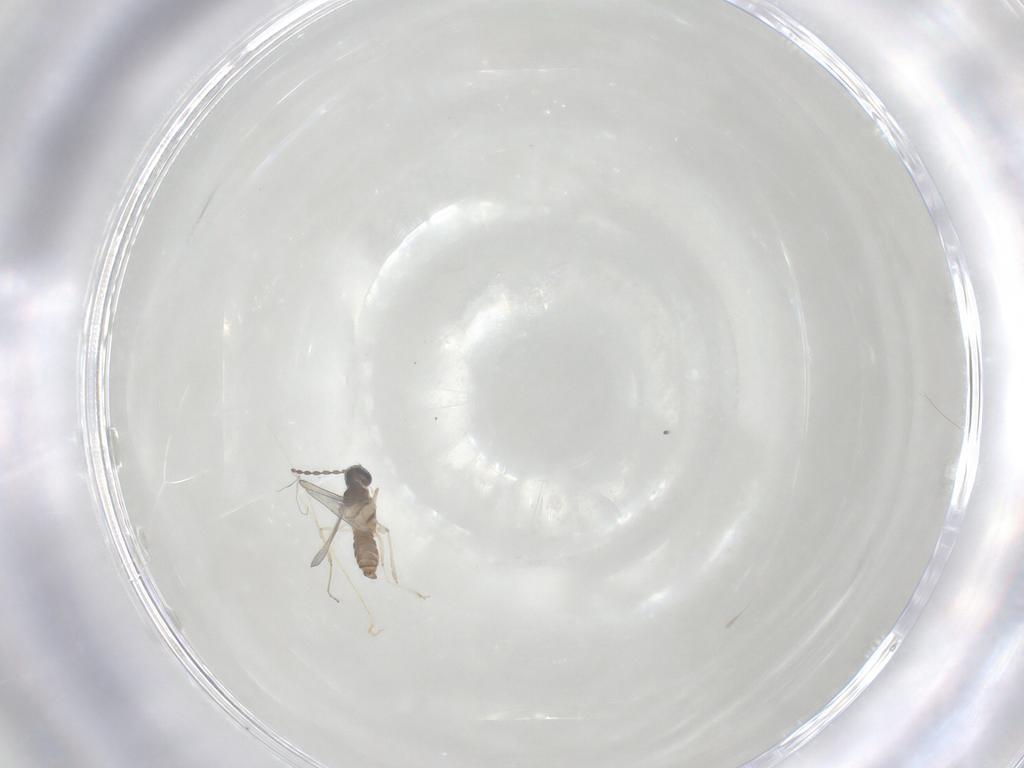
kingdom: Animalia
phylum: Arthropoda
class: Insecta
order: Diptera
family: Cecidomyiidae
